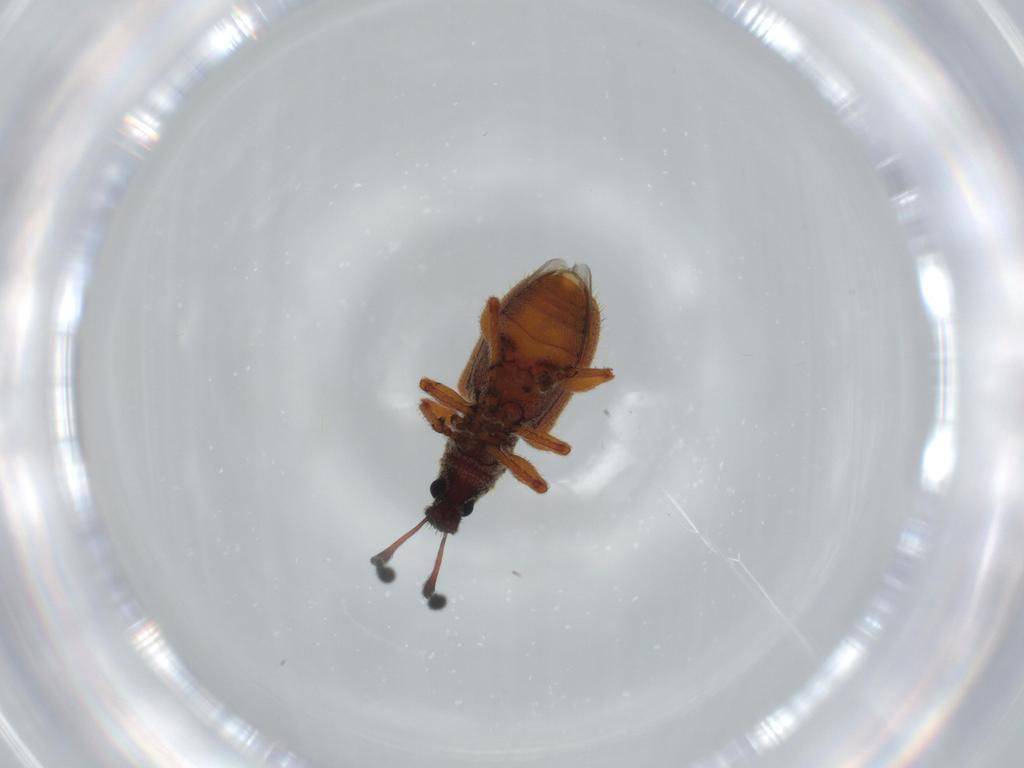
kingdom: Animalia
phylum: Arthropoda
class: Insecta
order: Coleoptera
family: Curculionidae
